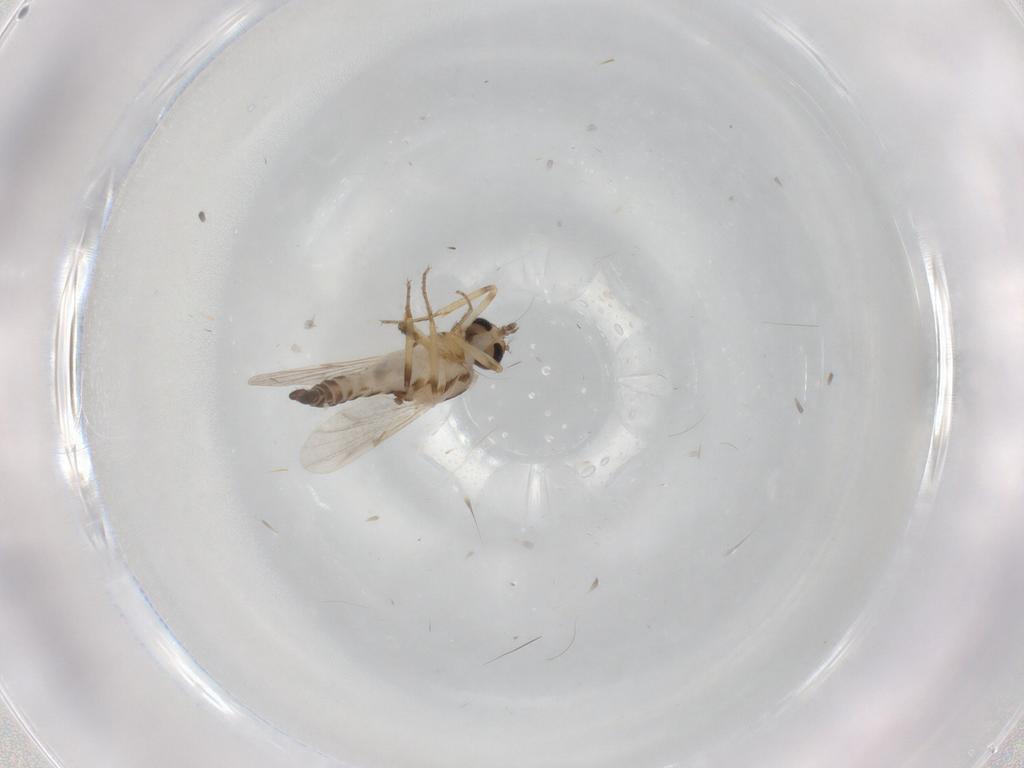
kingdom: Animalia
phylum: Arthropoda
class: Insecta
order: Diptera
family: Ceratopogonidae
